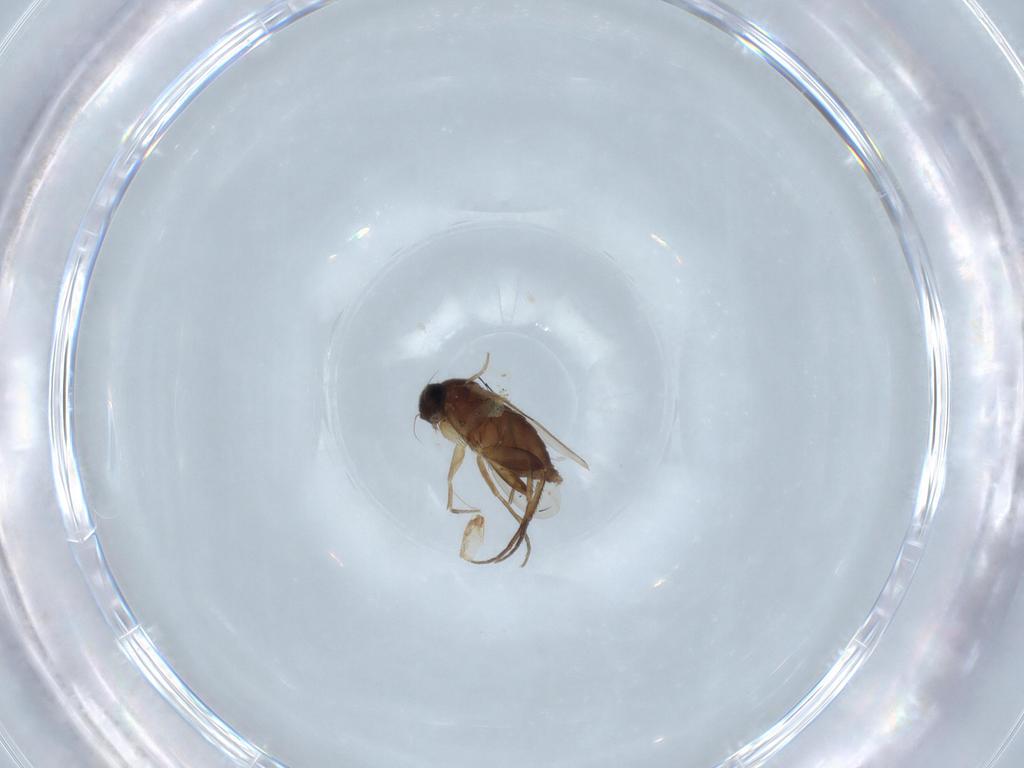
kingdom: Animalia
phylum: Arthropoda
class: Insecta
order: Diptera
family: Phoridae
